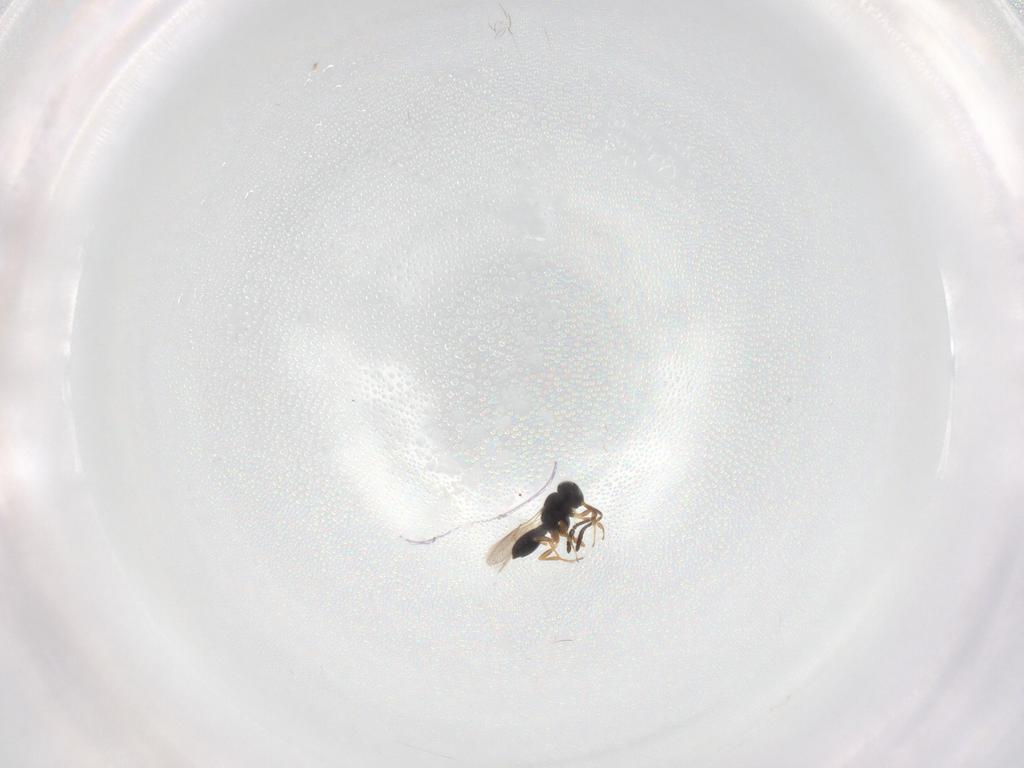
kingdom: Animalia
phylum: Arthropoda
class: Insecta
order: Hymenoptera
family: Scelionidae
